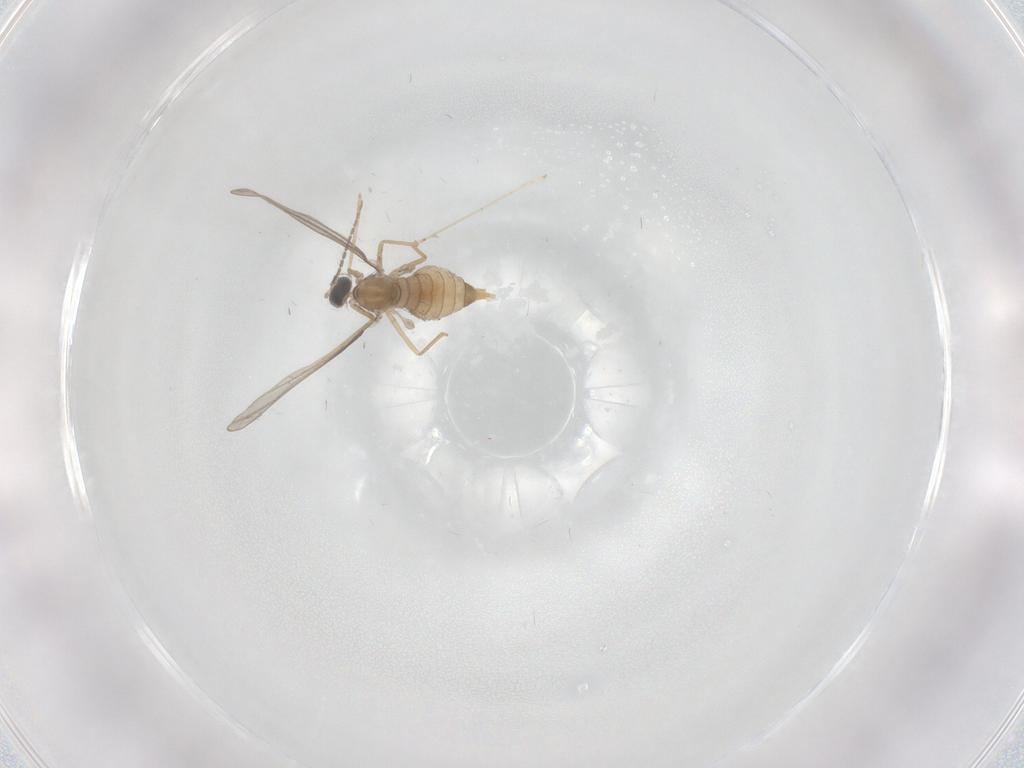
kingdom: Animalia
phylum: Arthropoda
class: Insecta
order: Diptera
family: Cecidomyiidae
